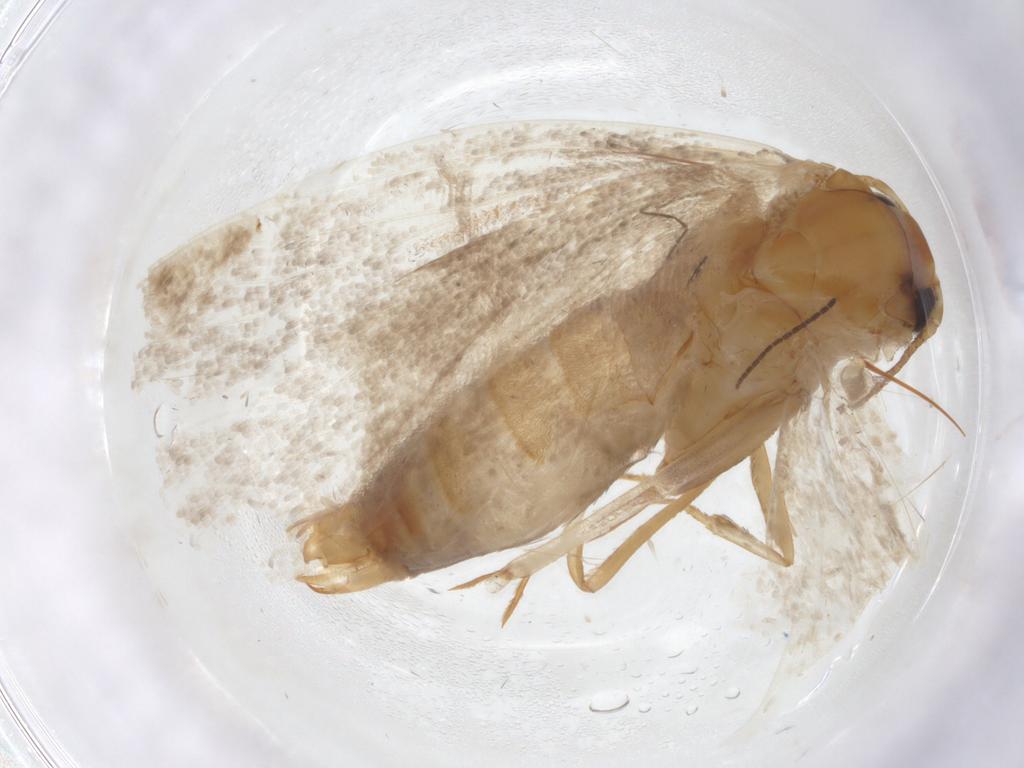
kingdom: Animalia
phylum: Arthropoda
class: Insecta
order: Lepidoptera
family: Oecophoridae
